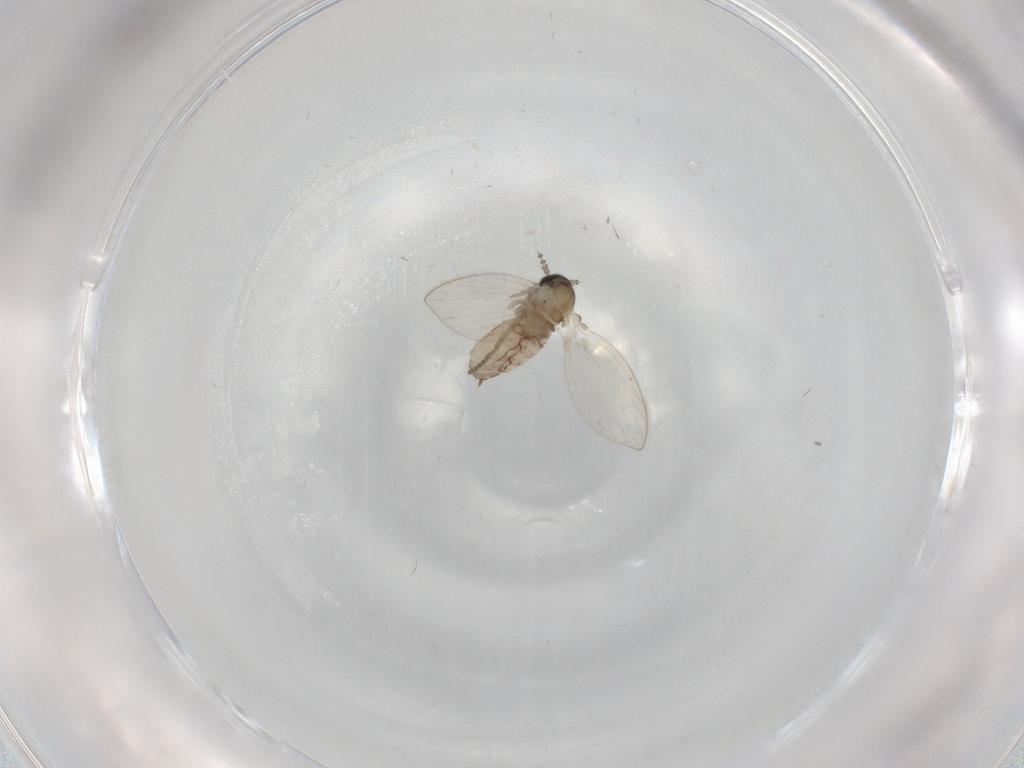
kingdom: Animalia
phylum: Arthropoda
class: Insecta
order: Diptera
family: Psychodidae
